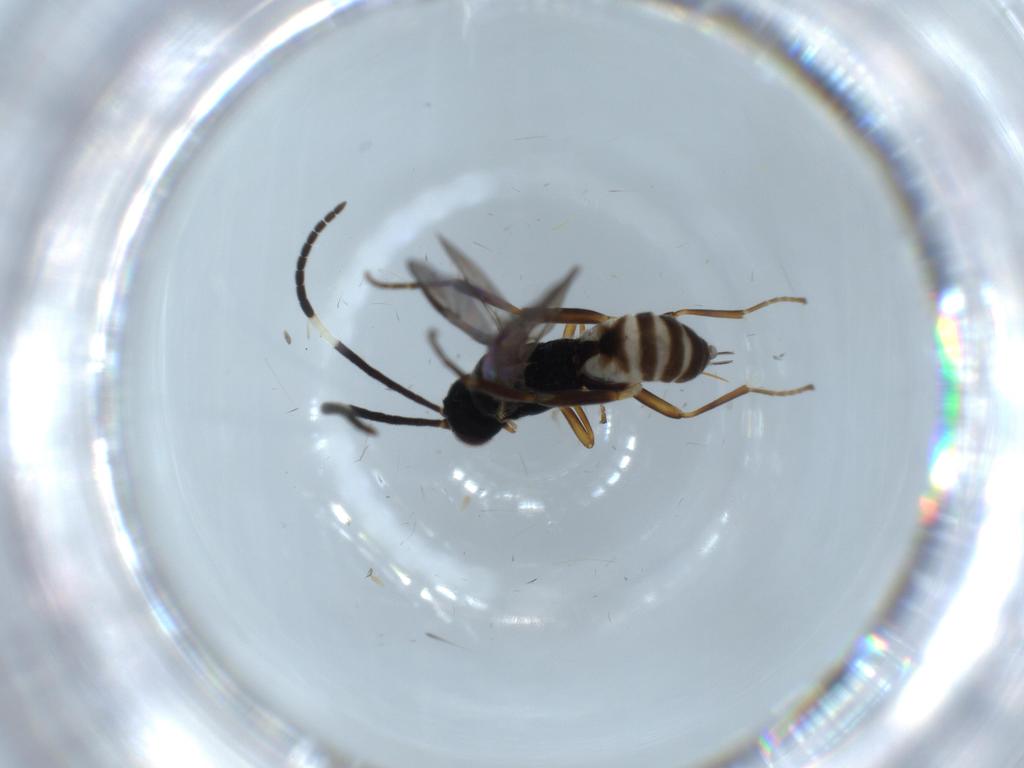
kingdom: Animalia
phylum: Arthropoda
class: Insecta
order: Lepidoptera
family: Tortricidae
